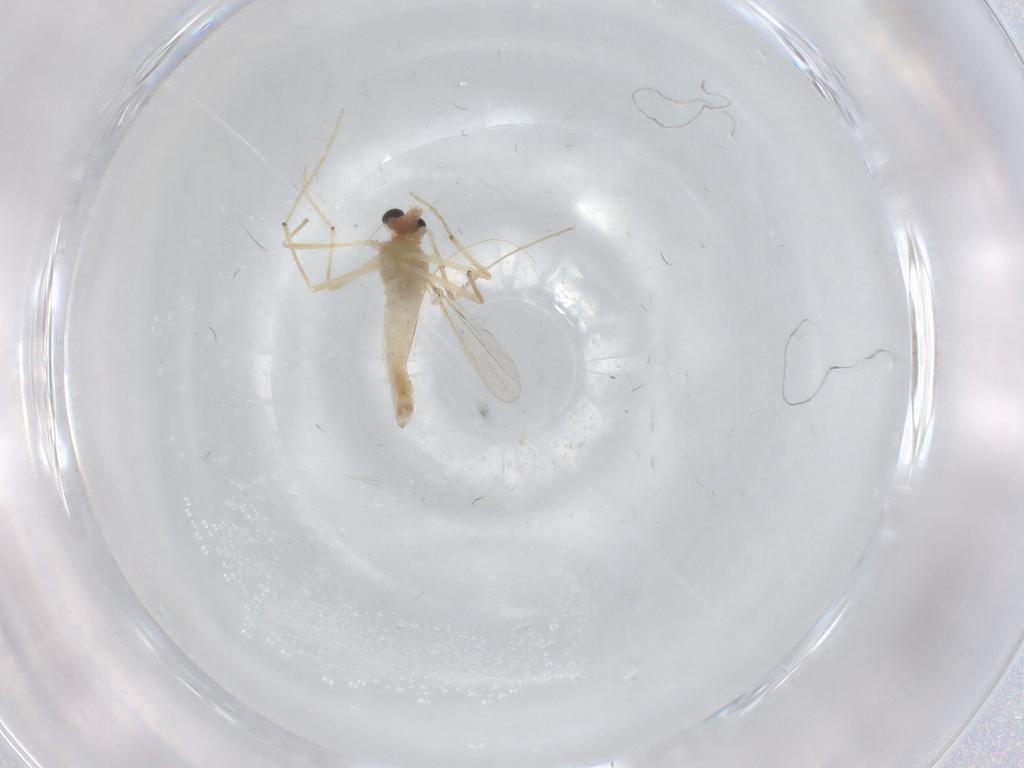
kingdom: Animalia
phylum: Arthropoda
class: Insecta
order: Diptera
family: Chironomidae
